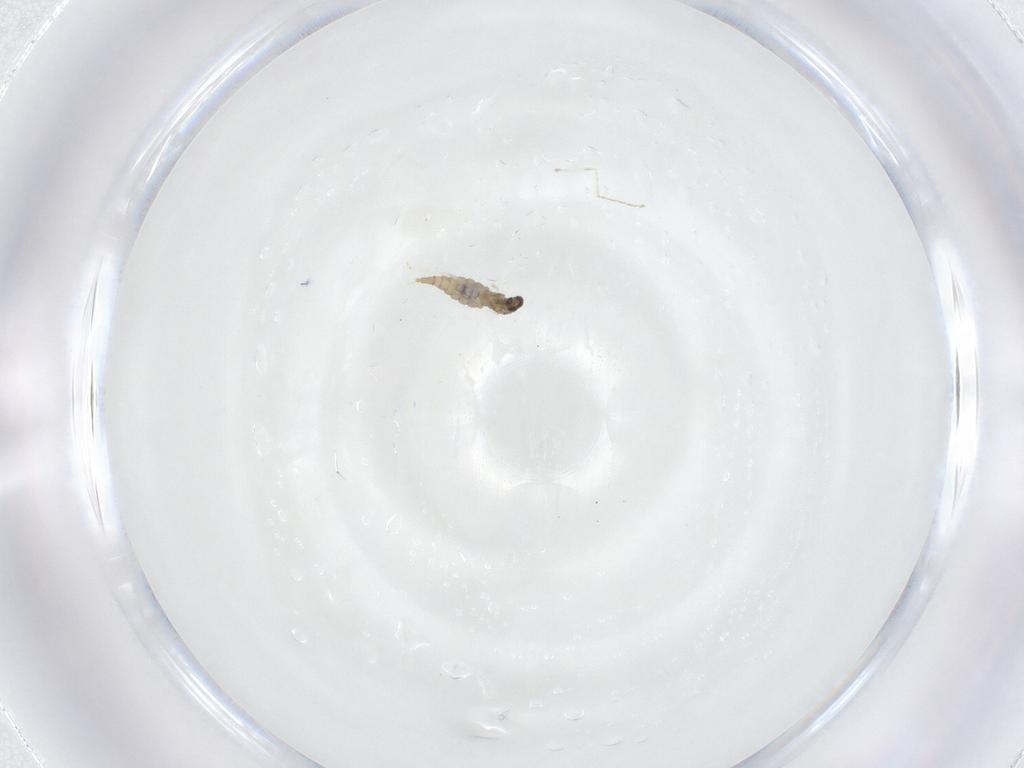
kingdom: Animalia
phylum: Arthropoda
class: Insecta
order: Diptera
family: Cecidomyiidae
